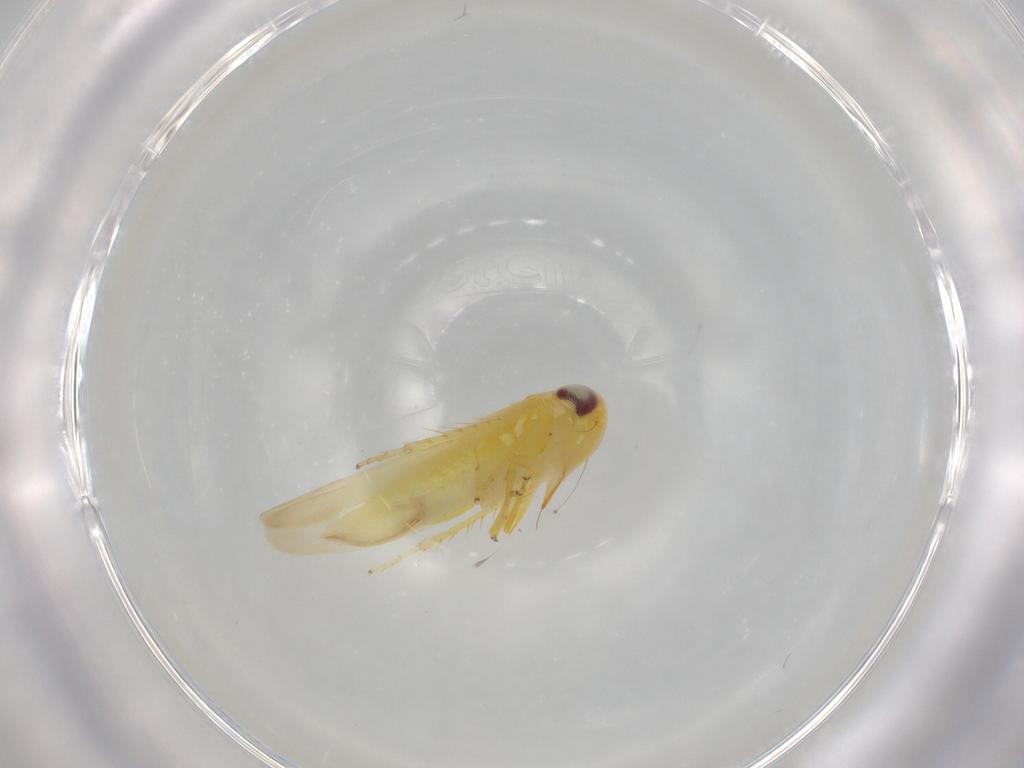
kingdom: Animalia
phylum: Arthropoda
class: Insecta
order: Hemiptera
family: Cicadellidae
